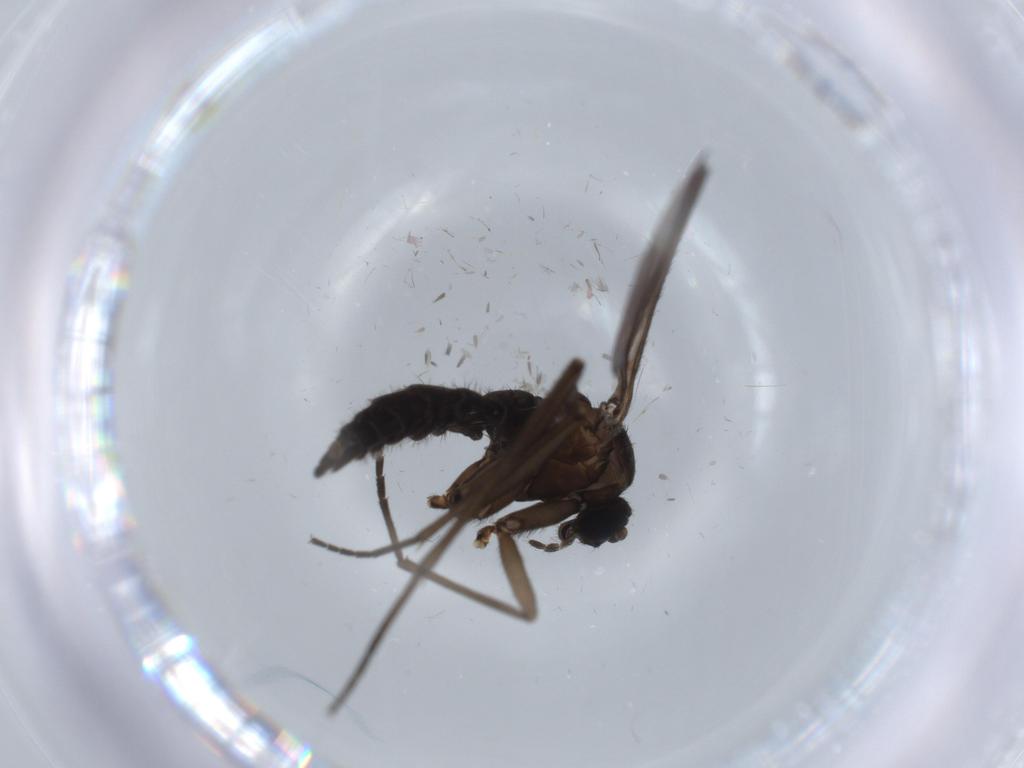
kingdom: Animalia
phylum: Arthropoda
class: Insecta
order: Diptera
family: Sciaridae
